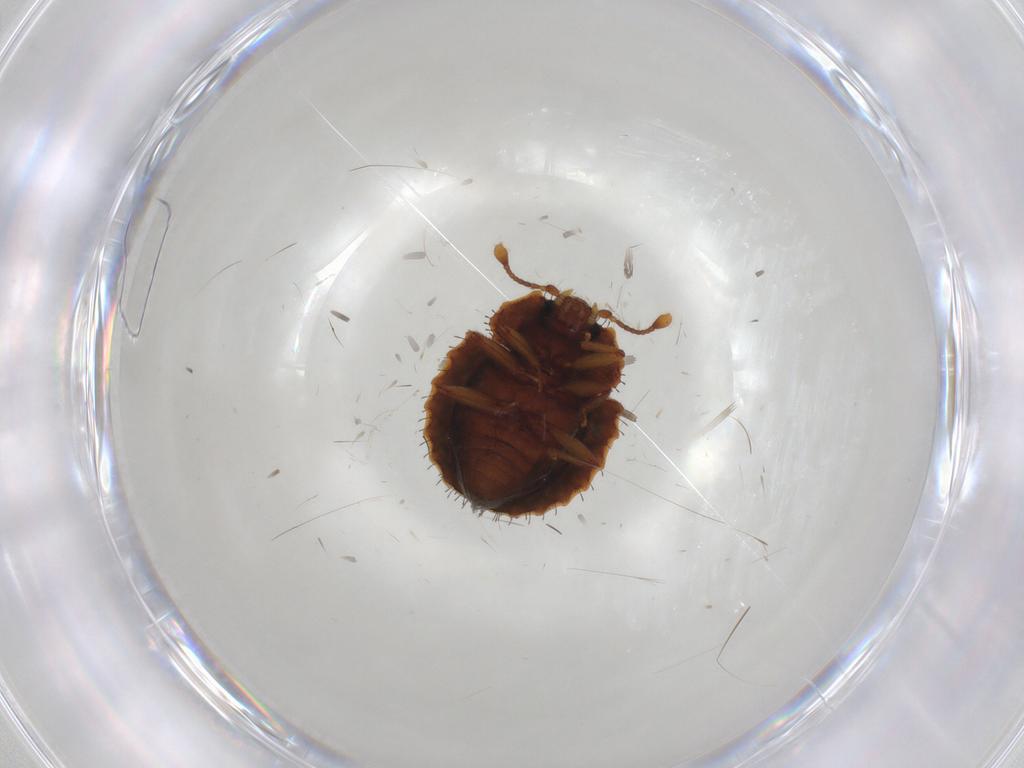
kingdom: Animalia
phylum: Arthropoda
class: Insecta
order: Coleoptera
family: Discolomatidae
